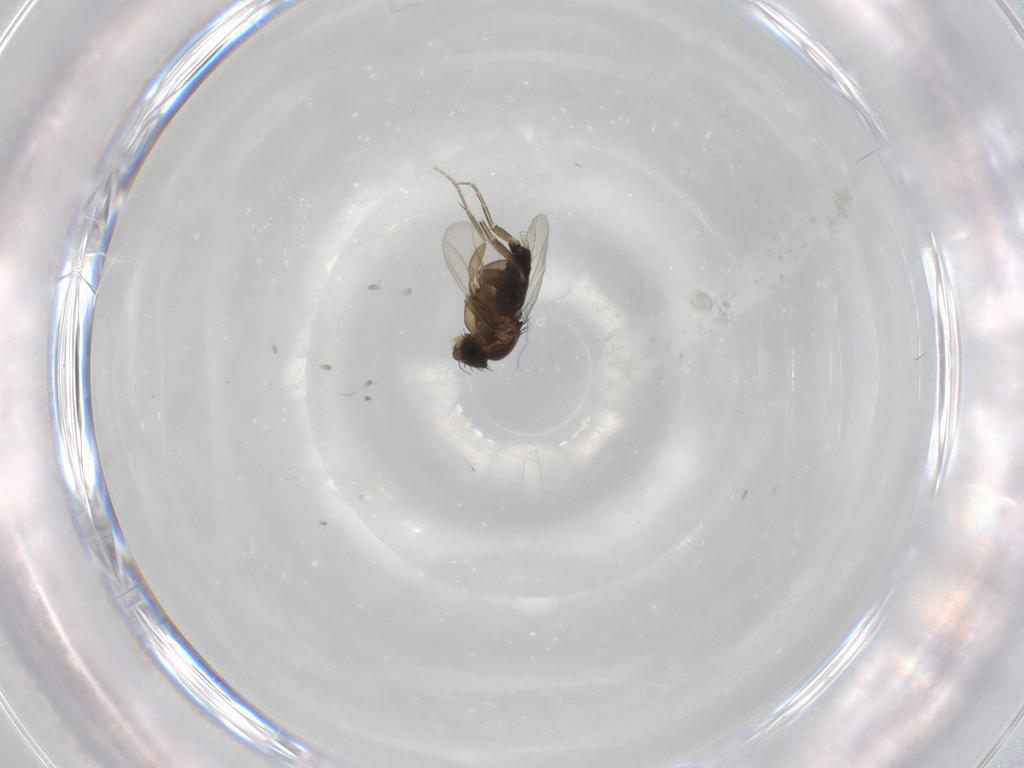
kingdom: Animalia
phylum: Arthropoda
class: Insecta
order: Diptera
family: Phoridae
